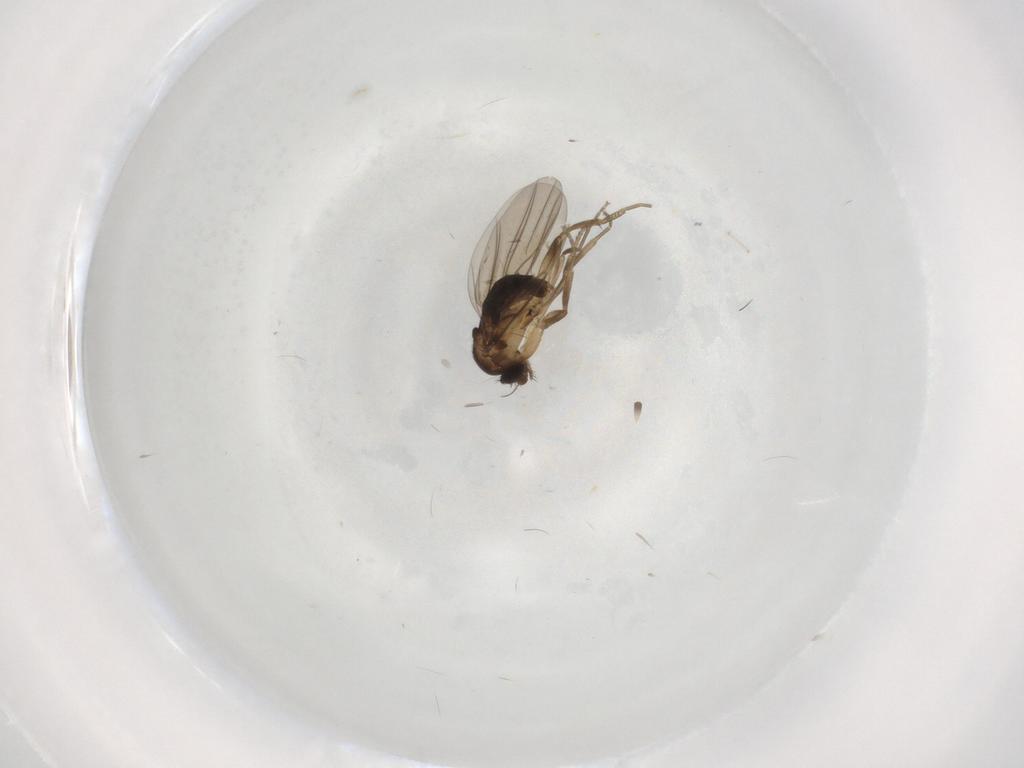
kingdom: Animalia
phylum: Arthropoda
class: Insecta
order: Diptera
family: Phoridae
